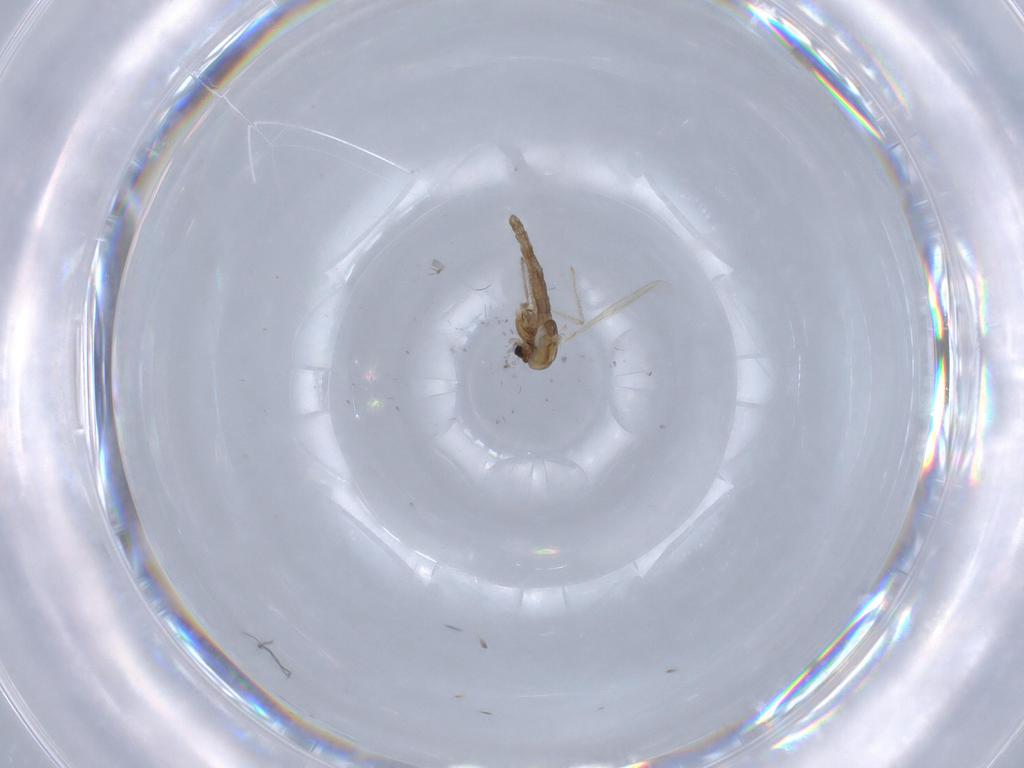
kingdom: Animalia
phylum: Arthropoda
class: Insecta
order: Diptera
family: Chironomidae
